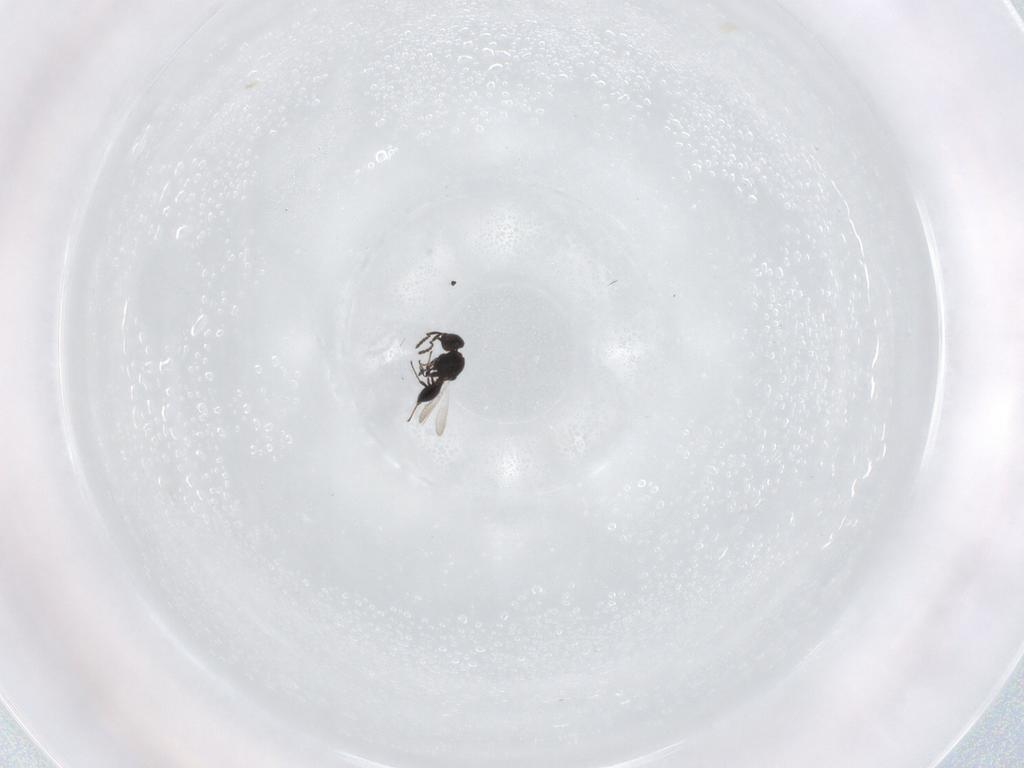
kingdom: Animalia
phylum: Arthropoda
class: Insecta
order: Hymenoptera
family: Platygastridae
